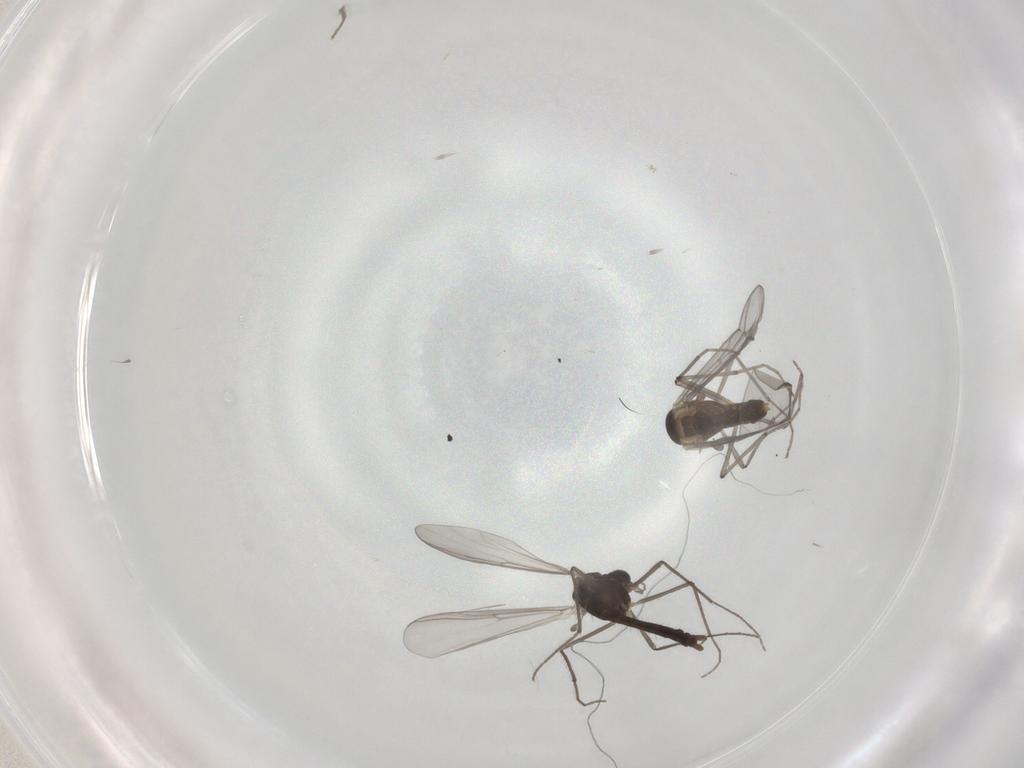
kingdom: Animalia
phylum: Arthropoda
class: Insecta
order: Diptera
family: Chironomidae
